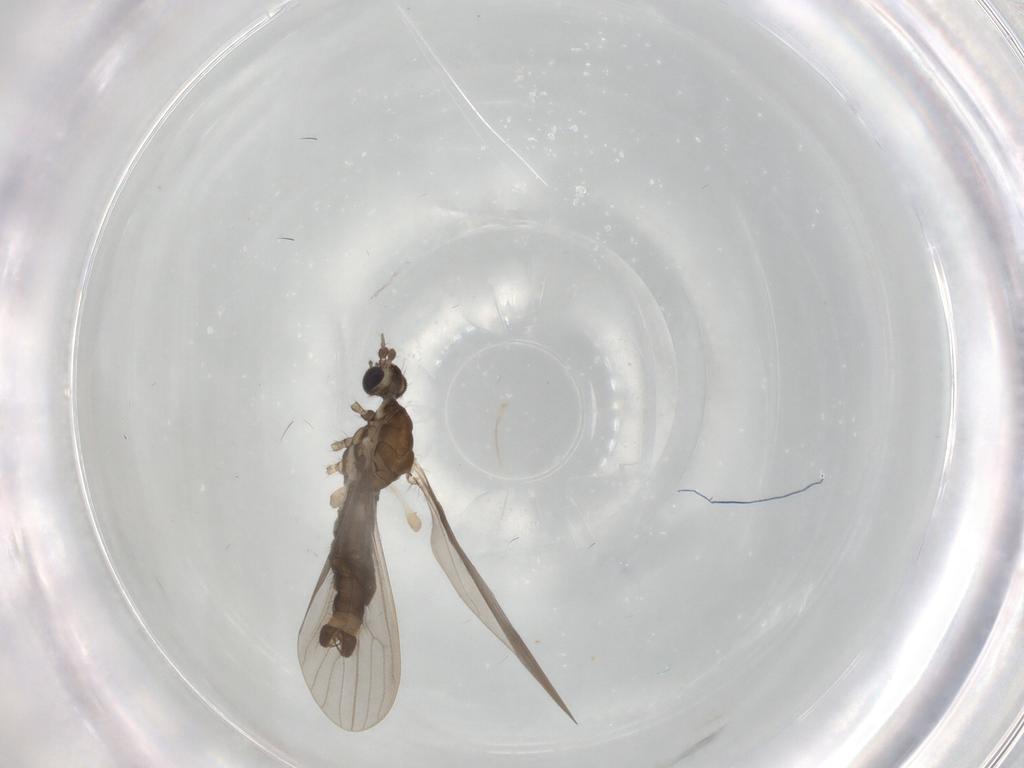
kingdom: Animalia
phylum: Arthropoda
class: Insecta
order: Diptera
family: Limoniidae
